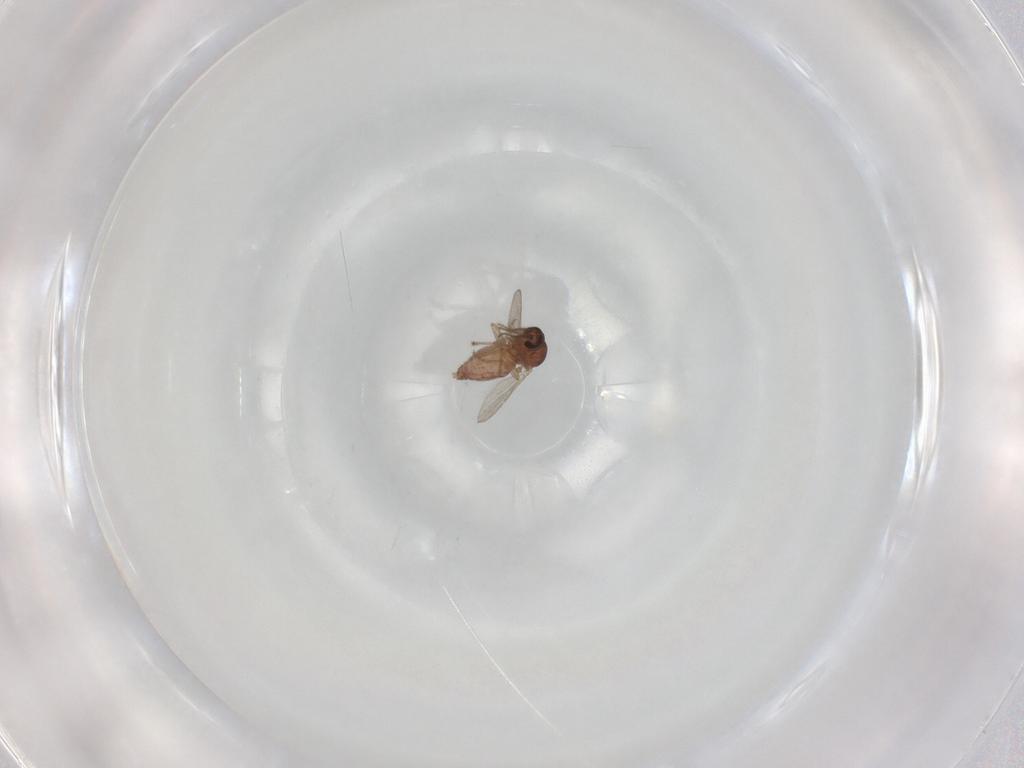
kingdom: Animalia
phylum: Arthropoda
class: Insecta
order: Diptera
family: Ceratopogonidae
